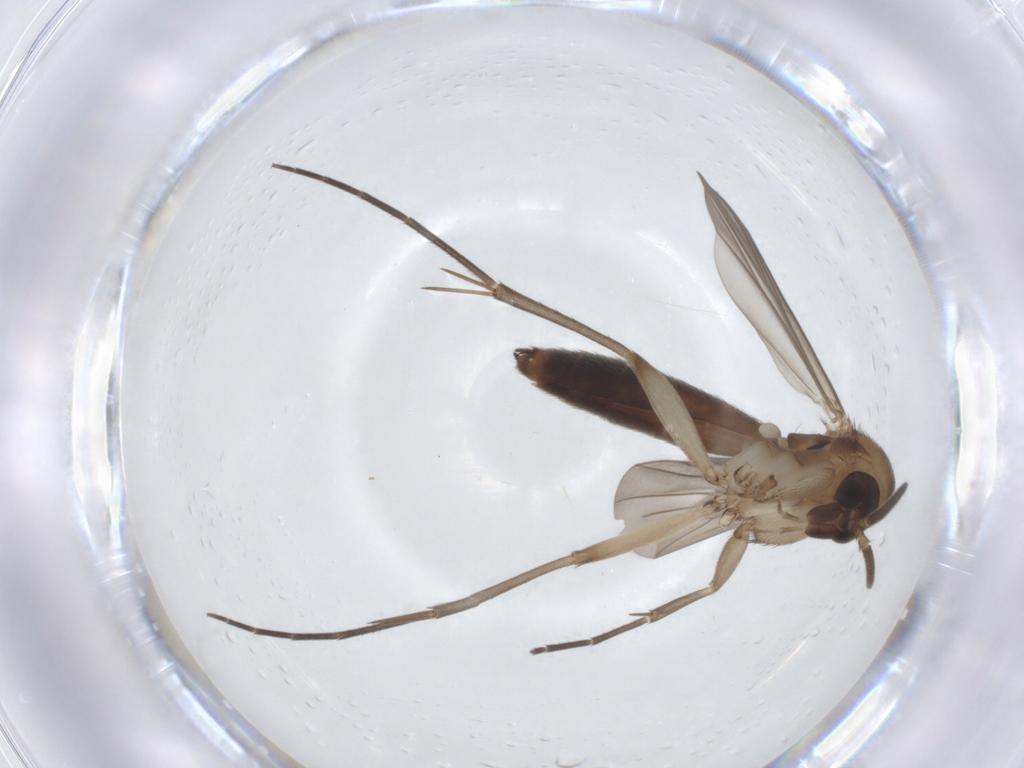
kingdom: Animalia
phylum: Arthropoda
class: Insecta
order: Diptera
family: Mycetophilidae
